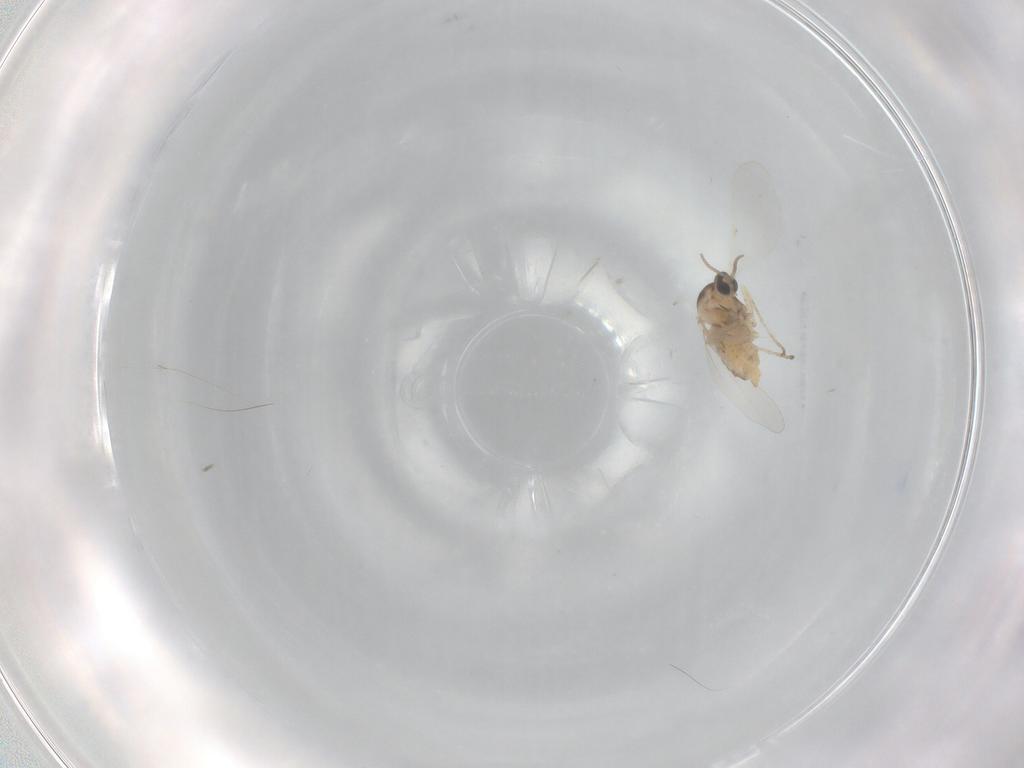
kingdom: Animalia
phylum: Arthropoda
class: Insecta
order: Diptera
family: Cecidomyiidae
